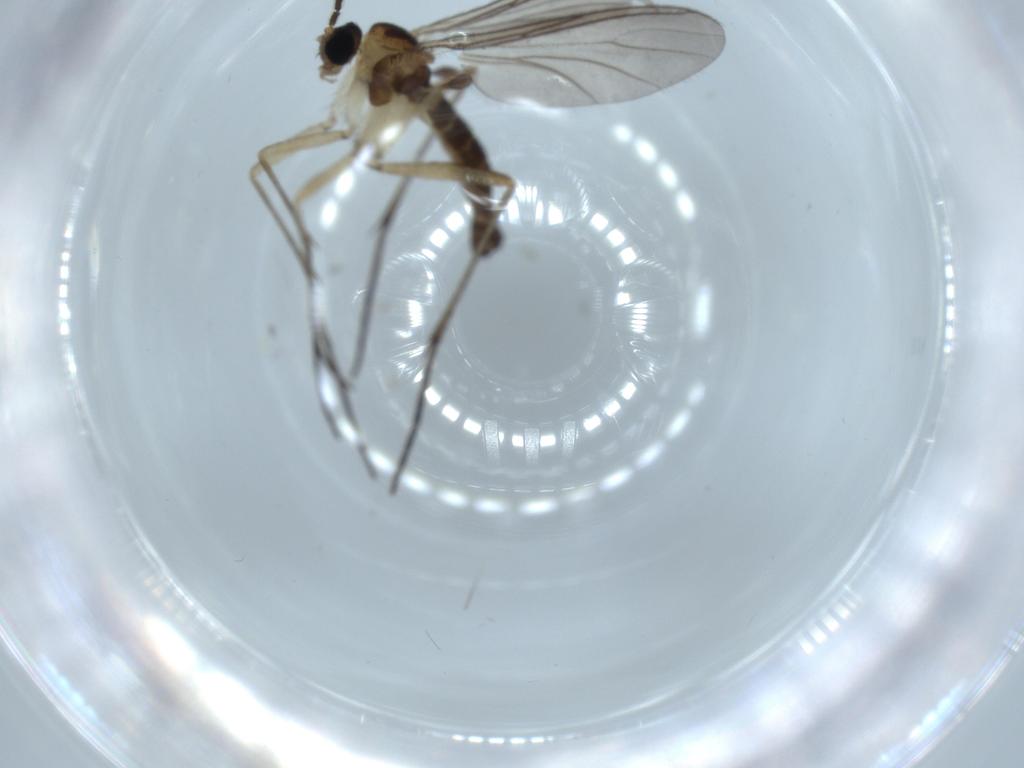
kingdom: Animalia
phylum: Arthropoda
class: Insecta
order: Diptera
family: Sciaridae
